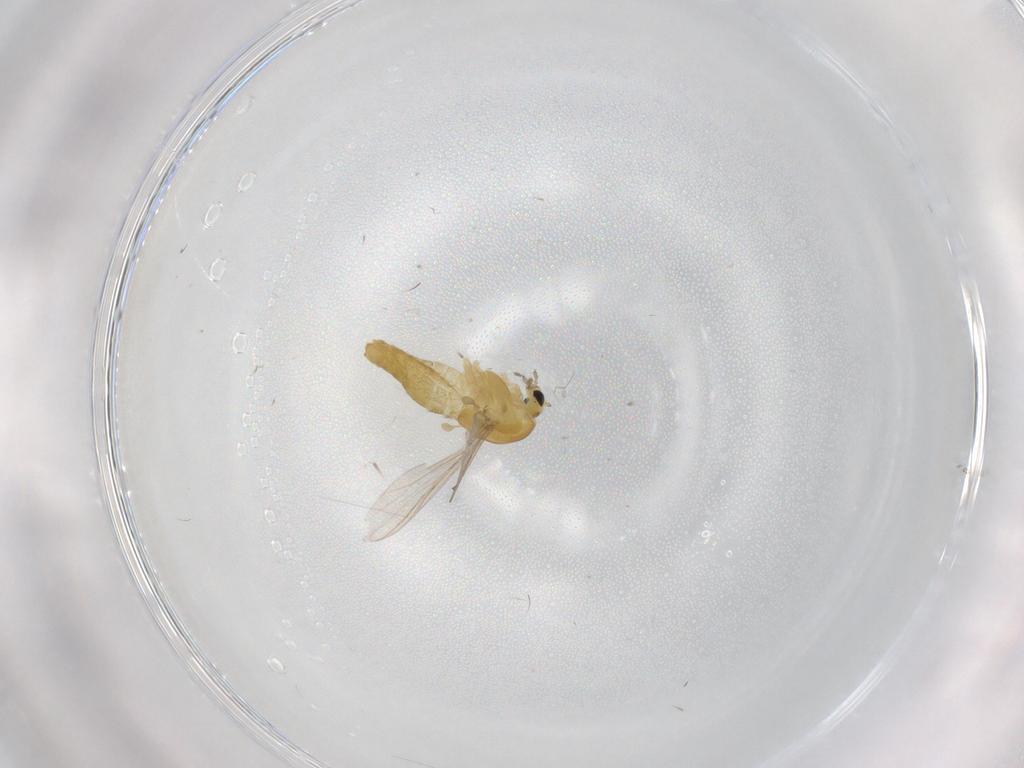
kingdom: Animalia
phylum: Arthropoda
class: Insecta
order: Diptera
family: Chironomidae
